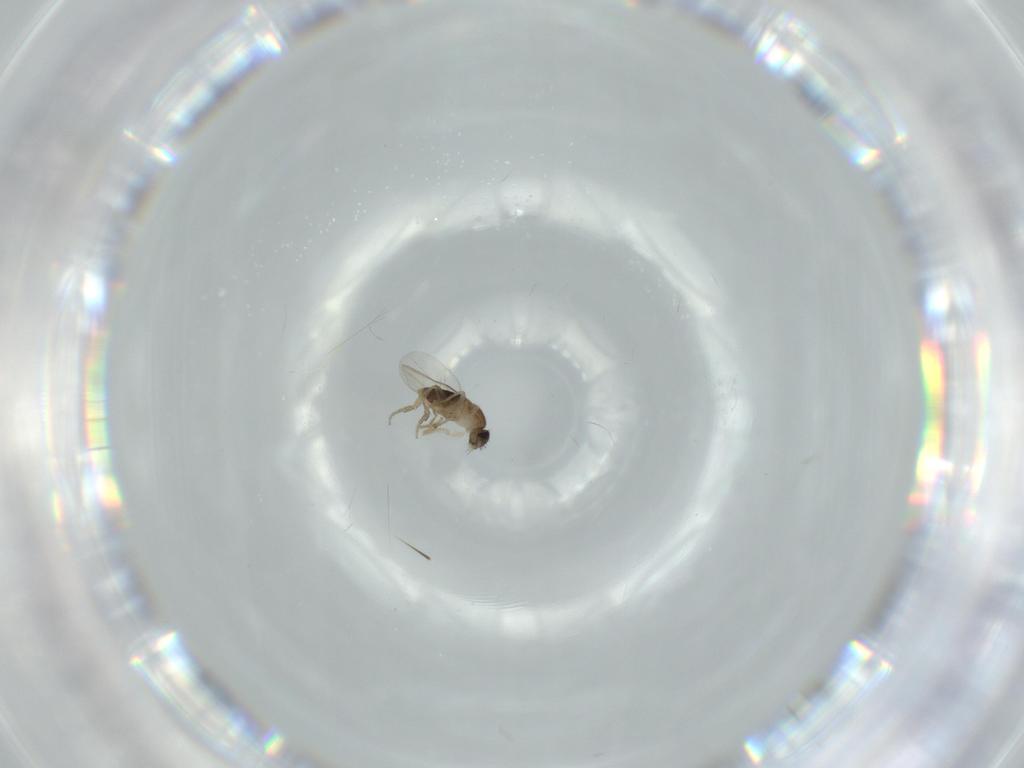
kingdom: Animalia
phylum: Arthropoda
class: Insecta
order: Diptera
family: Phoridae
